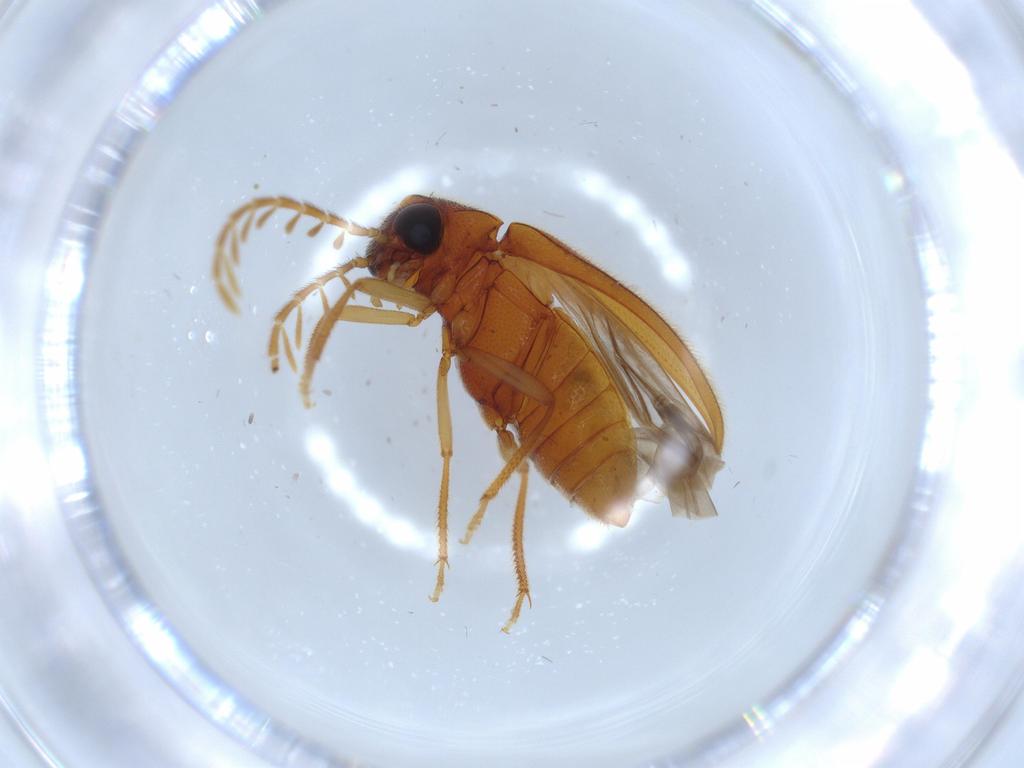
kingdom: Animalia
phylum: Arthropoda
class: Insecta
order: Coleoptera
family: Ptilodactylidae
